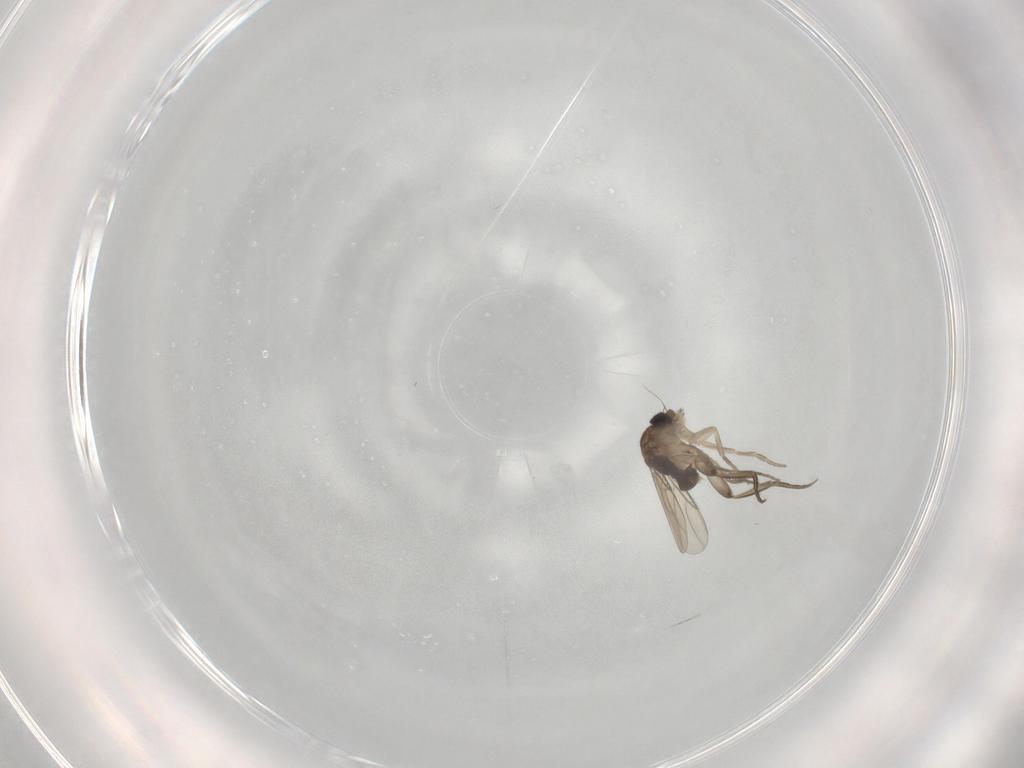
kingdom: Animalia
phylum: Arthropoda
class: Insecta
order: Diptera
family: Phoridae
